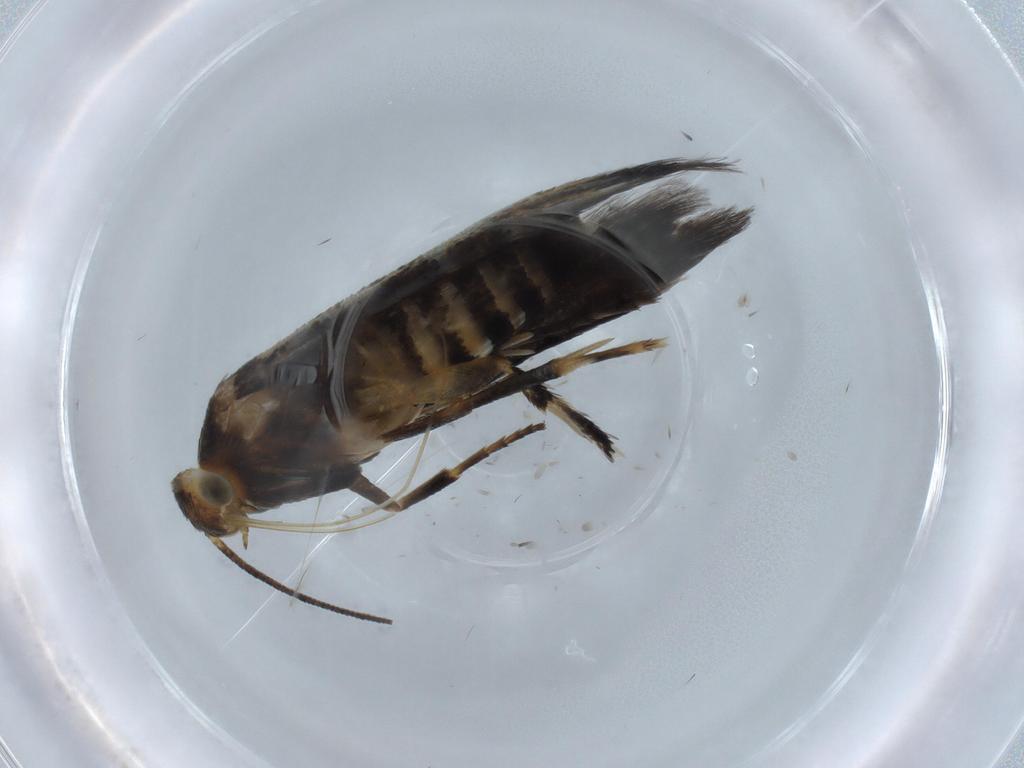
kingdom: Animalia
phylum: Arthropoda
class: Insecta
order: Lepidoptera
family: Heliodinidae
